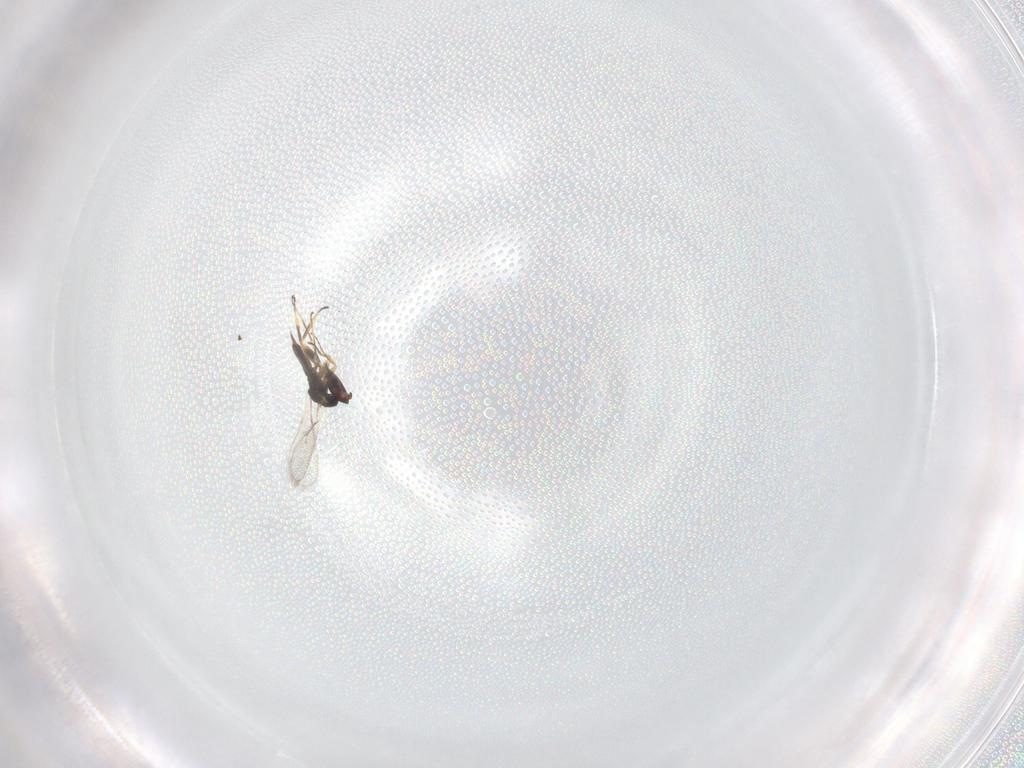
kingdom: Animalia
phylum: Arthropoda
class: Insecta
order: Hymenoptera
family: Eulophidae
